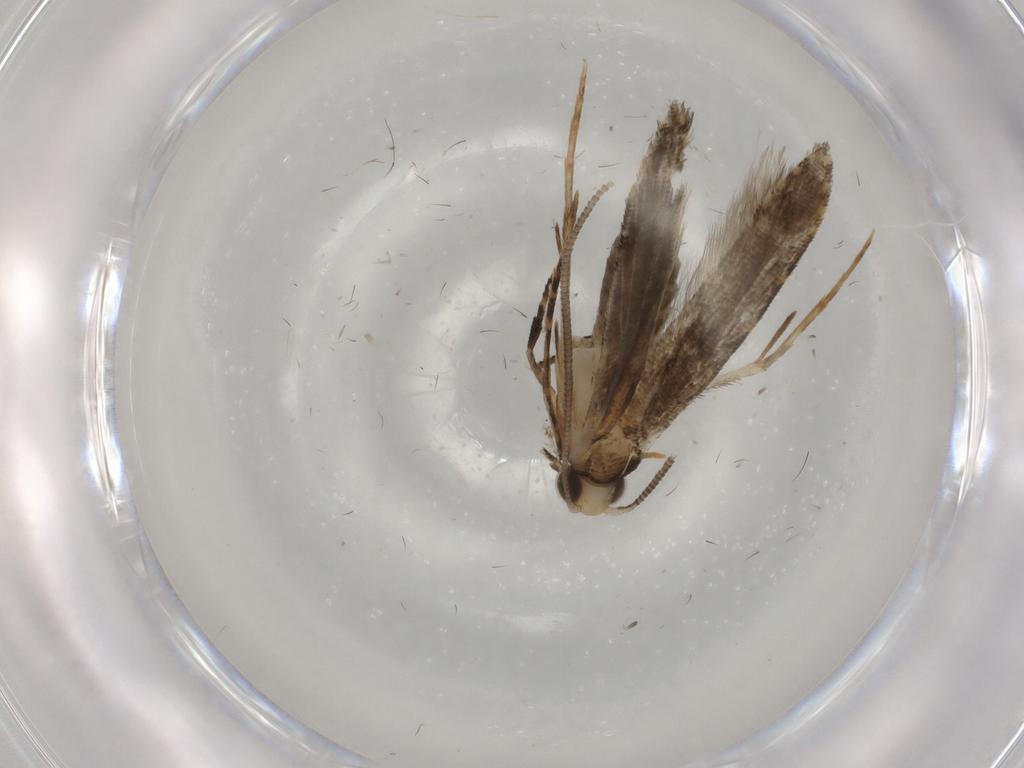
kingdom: Animalia
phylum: Arthropoda
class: Insecta
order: Lepidoptera
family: Tineidae
